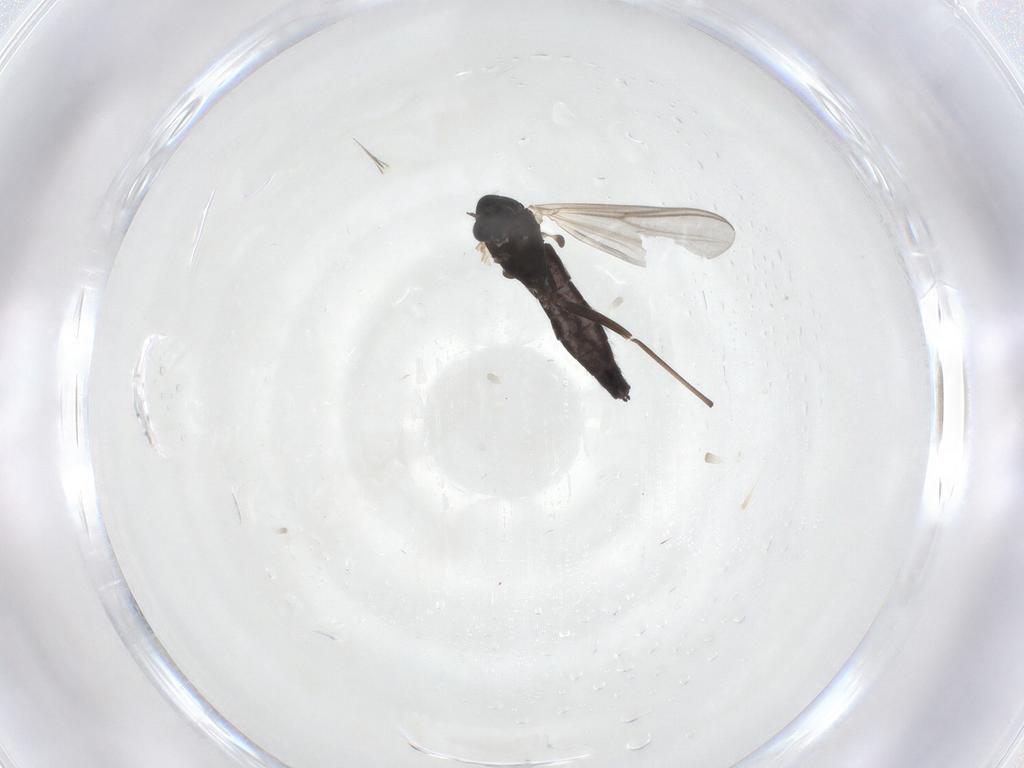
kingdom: Animalia
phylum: Arthropoda
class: Insecta
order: Diptera
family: Chironomidae
